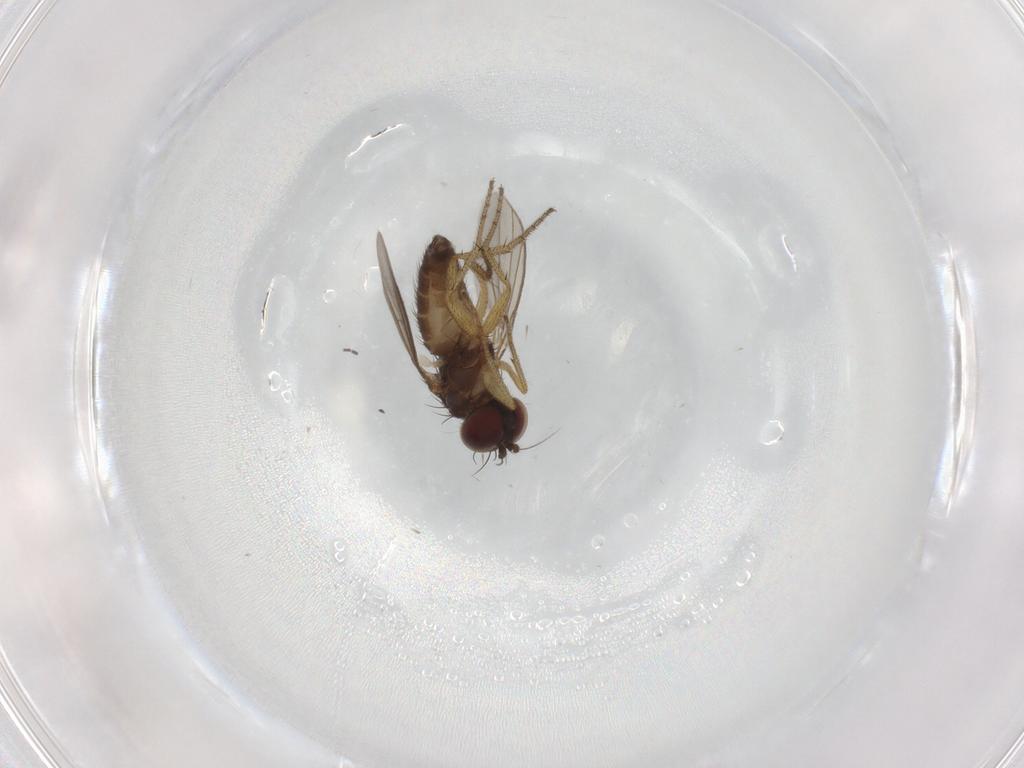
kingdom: Animalia
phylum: Arthropoda
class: Insecta
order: Diptera
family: Dolichopodidae
